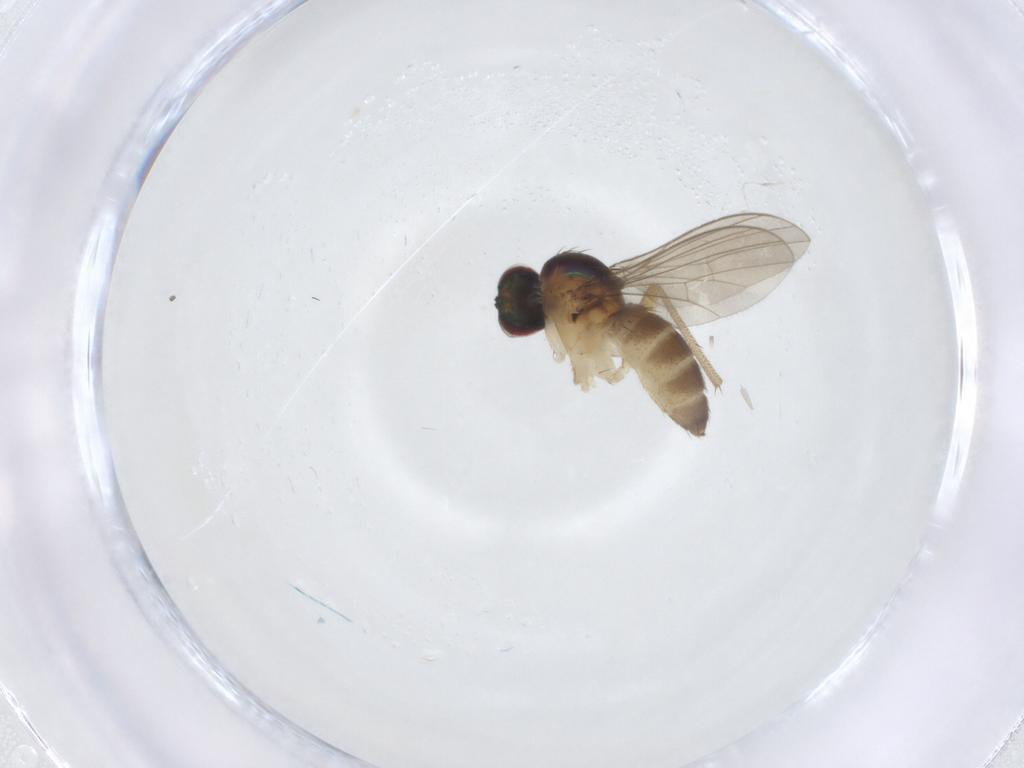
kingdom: Animalia
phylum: Arthropoda
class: Insecta
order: Diptera
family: Dolichopodidae
